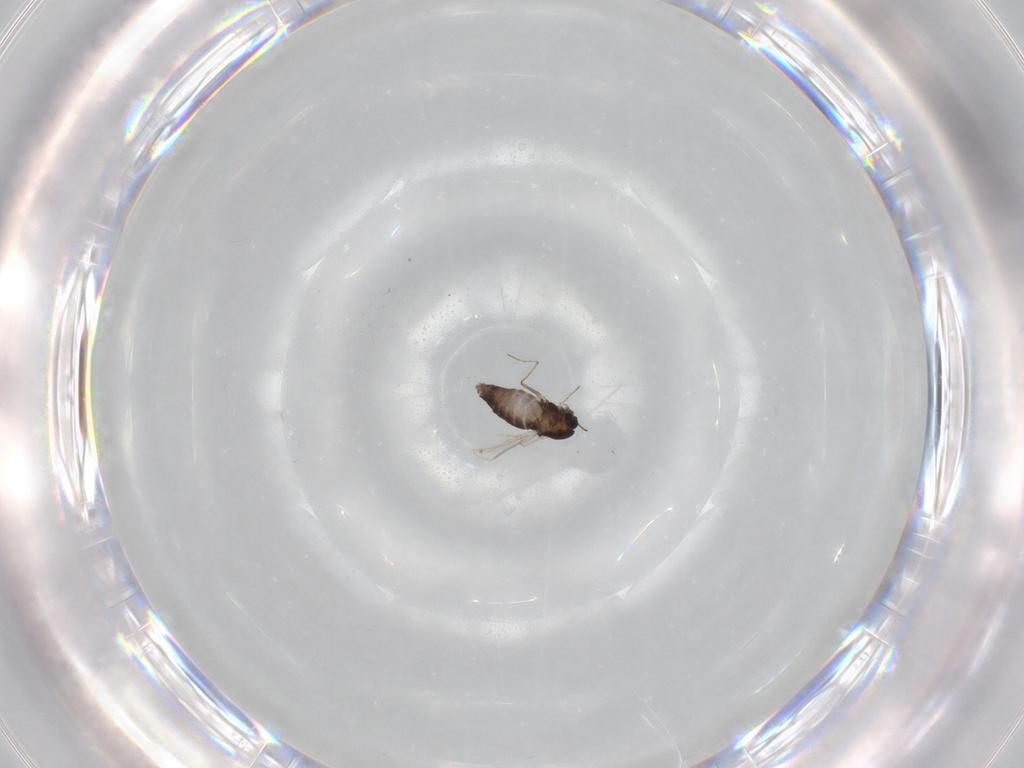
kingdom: Animalia
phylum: Arthropoda
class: Insecta
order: Diptera
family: Chironomidae
